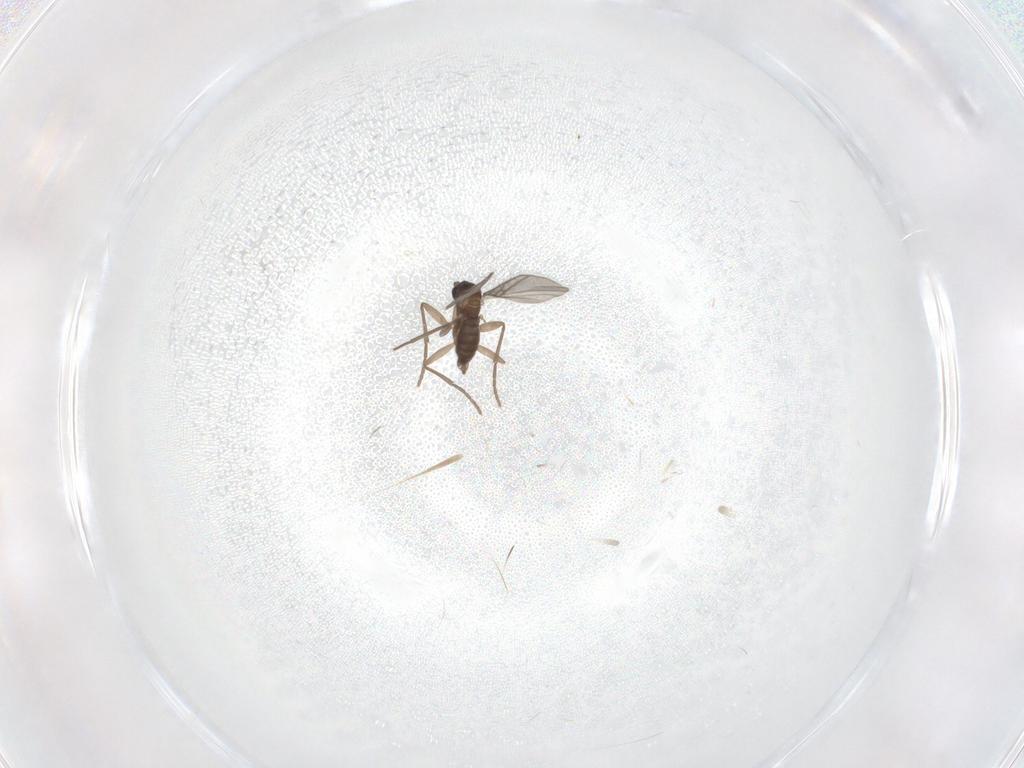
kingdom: Animalia
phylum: Arthropoda
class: Insecta
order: Diptera
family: Sciaridae
